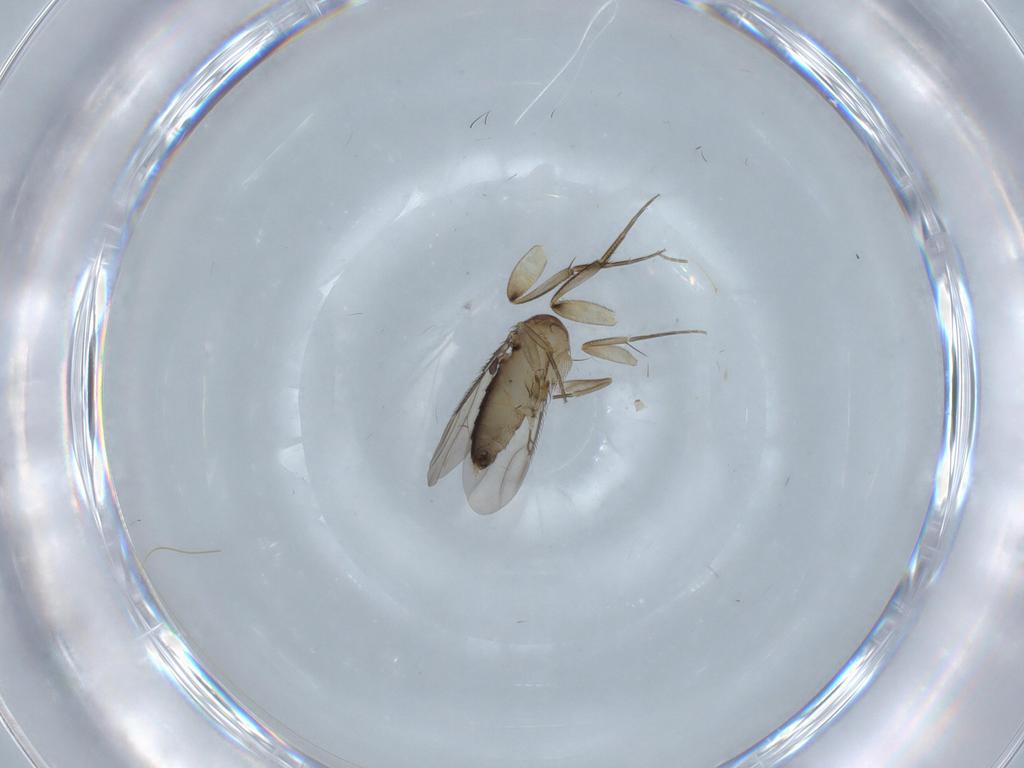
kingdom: Animalia
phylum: Arthropoda
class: Insecta
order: Diptera
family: Phoridae
